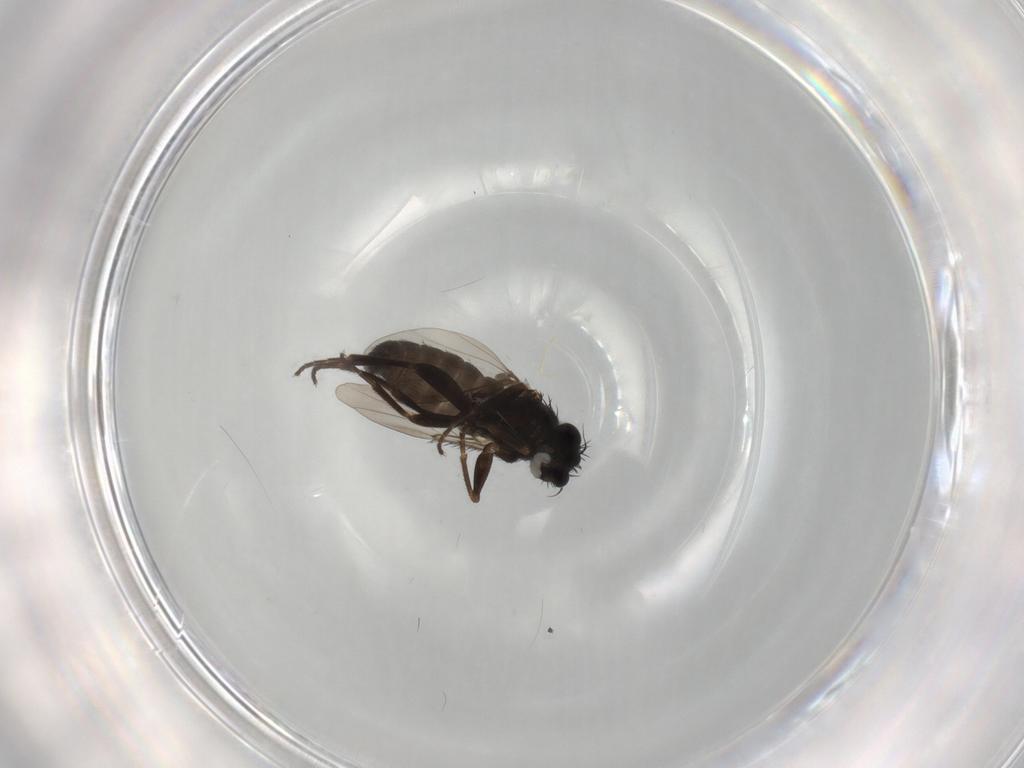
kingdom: Animalia
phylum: Arthropoda
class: Insecta
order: Diptera
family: Phoridae
